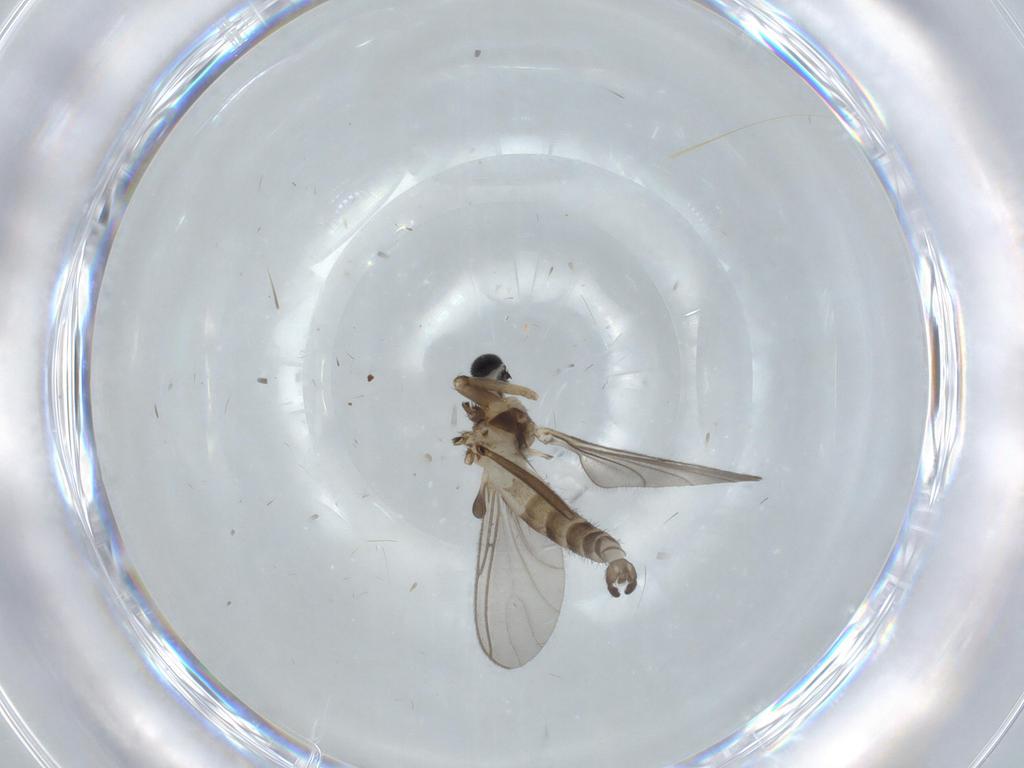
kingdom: Animalia
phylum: Arthropoda
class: Insecta
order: Diptera
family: Sciaridae
